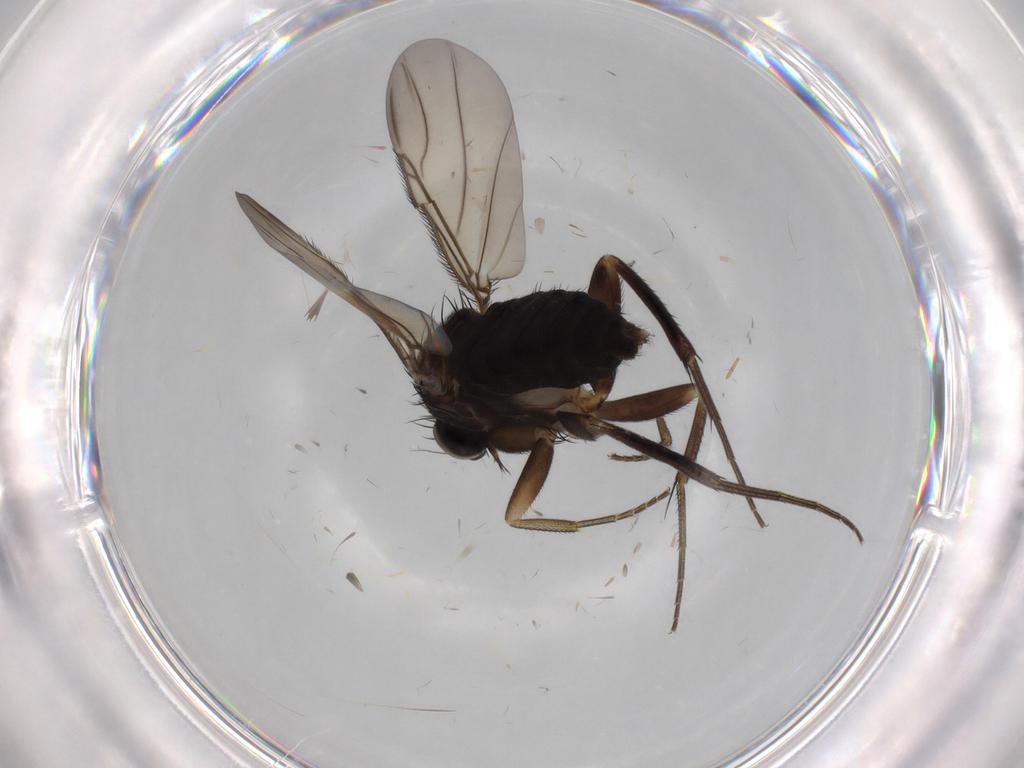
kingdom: Animalia
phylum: Arthropoda
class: Insecta
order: Diptera
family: Phoridae
